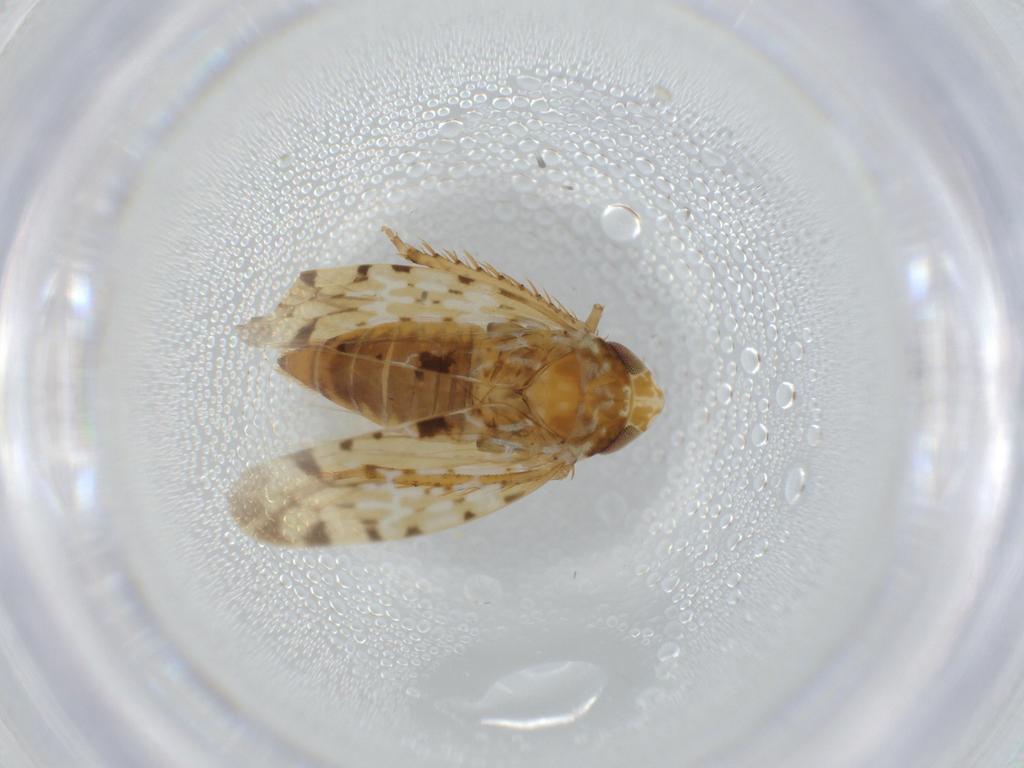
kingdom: Animalia
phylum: Arthropoda
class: Insecta
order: Hemiptera
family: Cicadellidae
